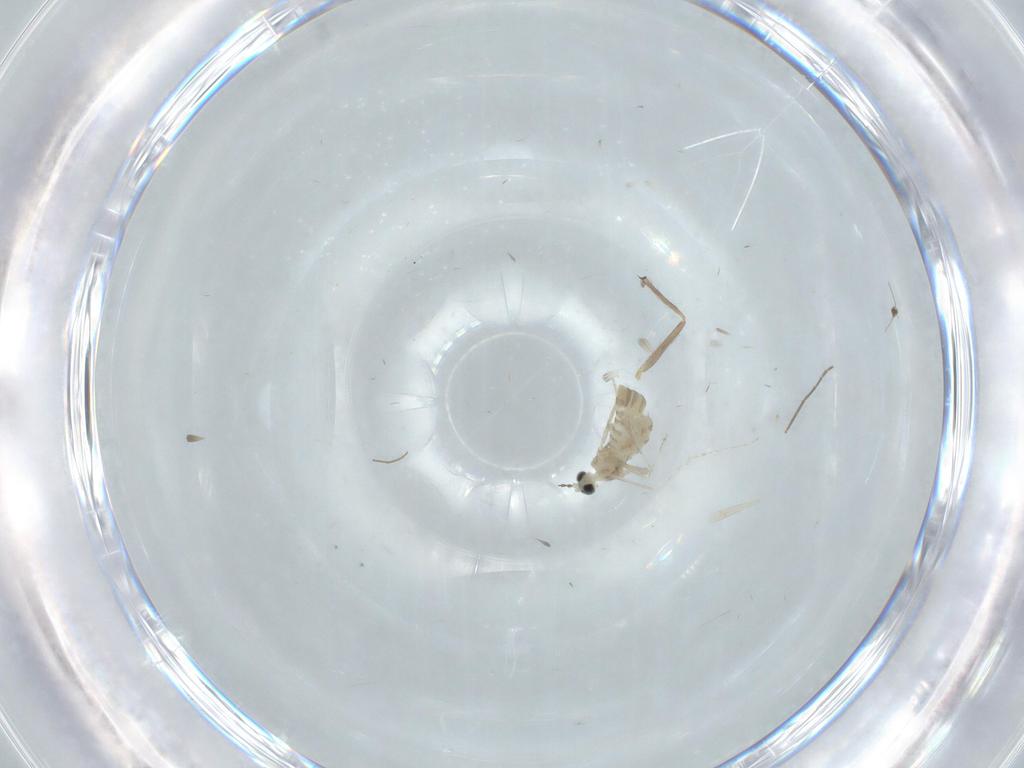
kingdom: Animalia
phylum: Arthropoda
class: Insecta
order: Diptera
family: Cecidomyiidae
